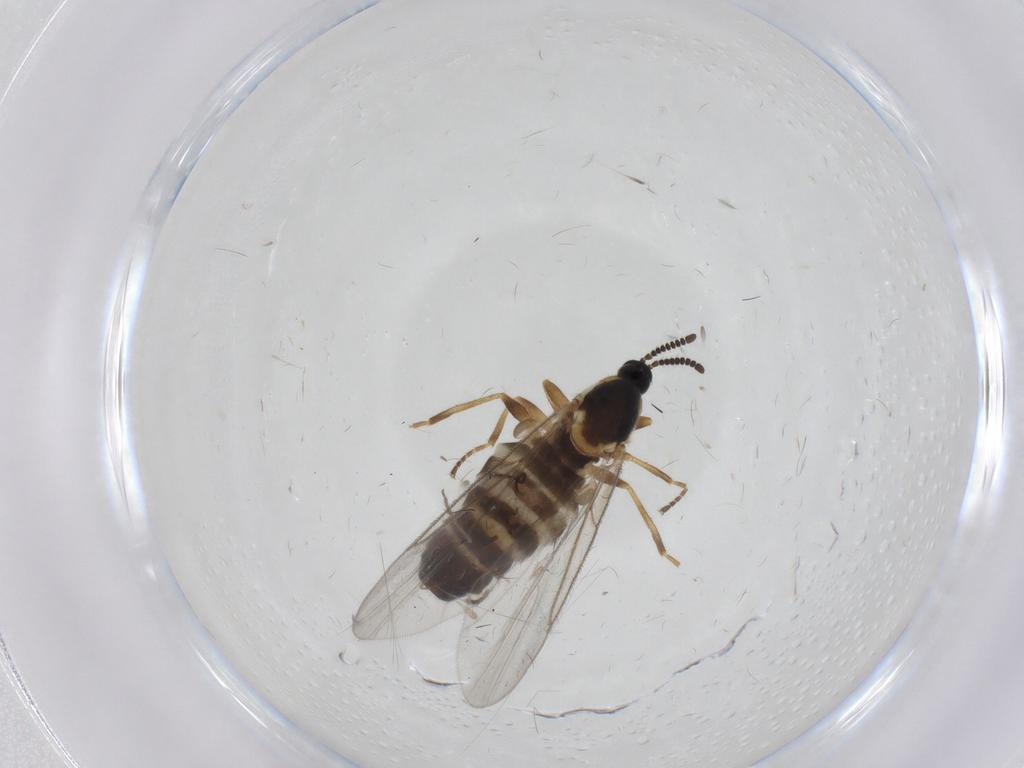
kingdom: Animalia
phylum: Arthropoda
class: Insecta
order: Diptera
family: Scatopsidae
